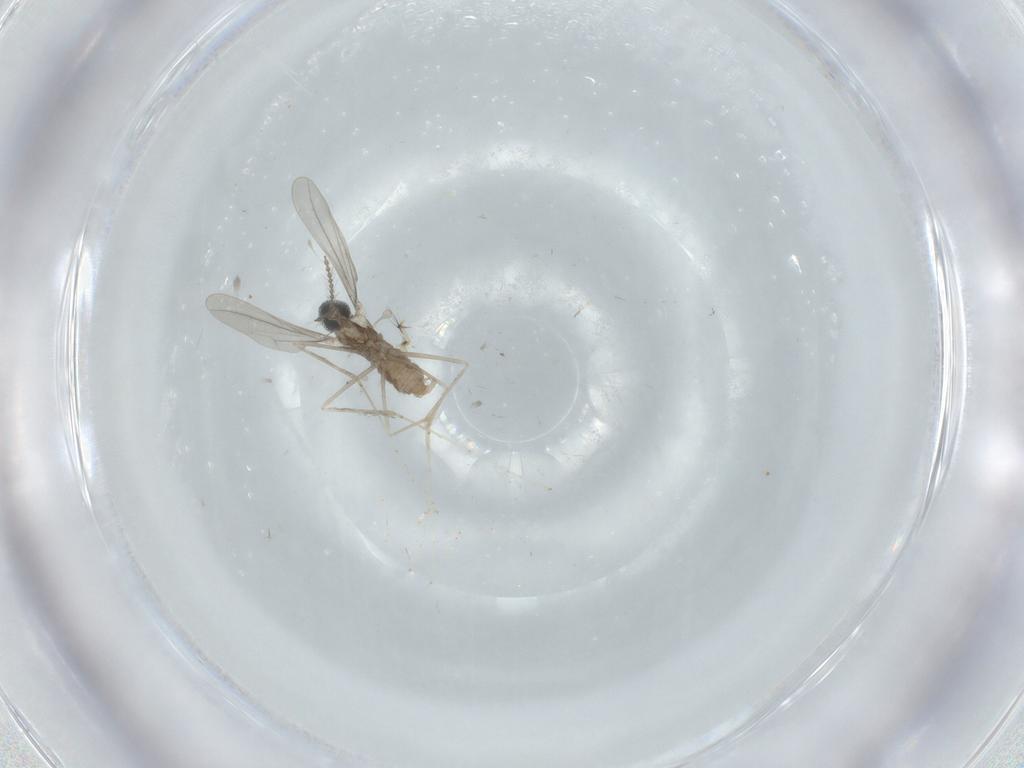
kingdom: Animalia
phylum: Arthropoda
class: Insecta
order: Diptera
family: Cecidomyiidae
